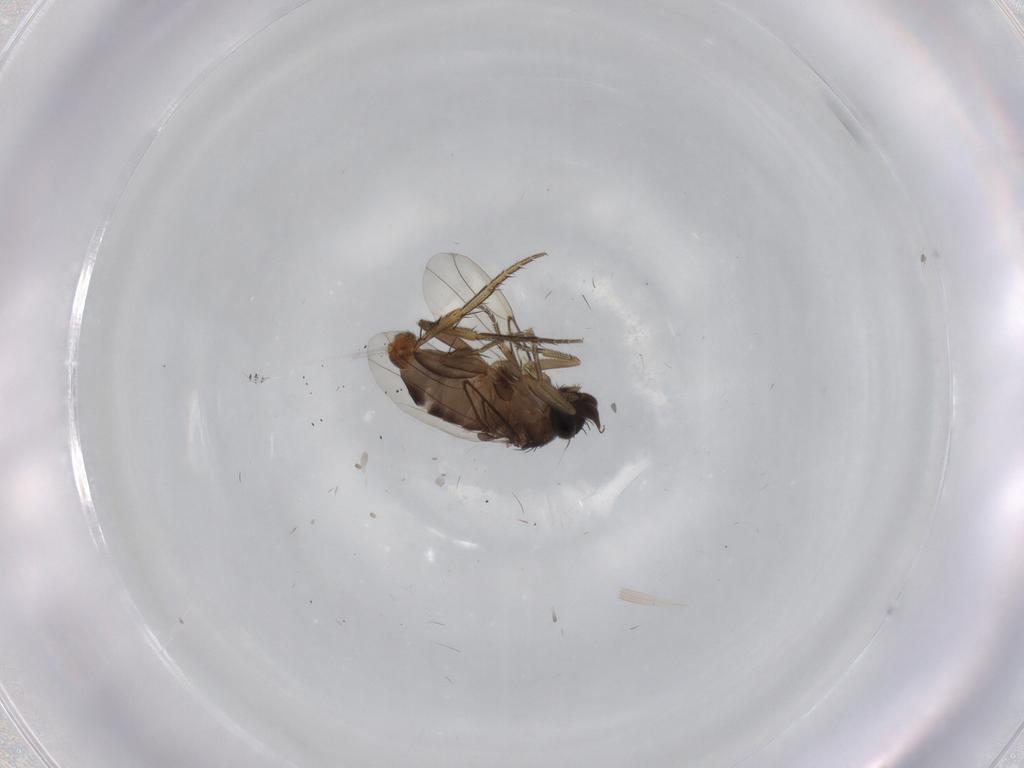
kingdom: Animalia
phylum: Arthropoda
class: Insecta
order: Diptera
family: Phoridae
